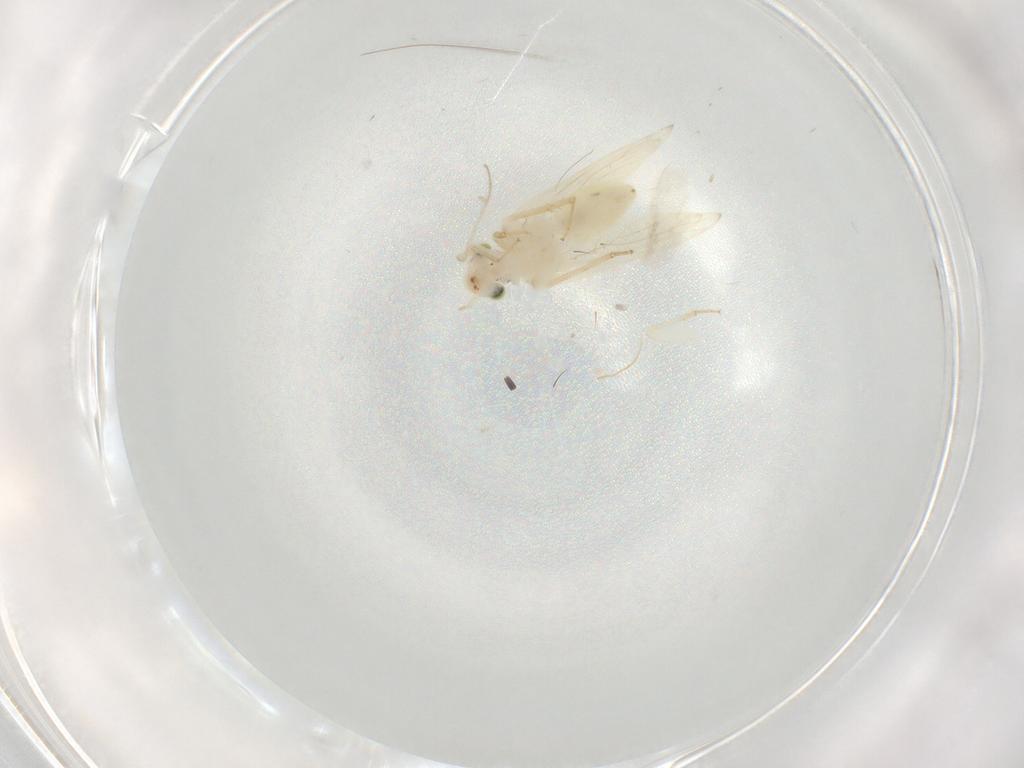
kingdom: Animalia
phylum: Arthropoda
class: Insecta
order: Psocodea
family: Lepidopsocidae
